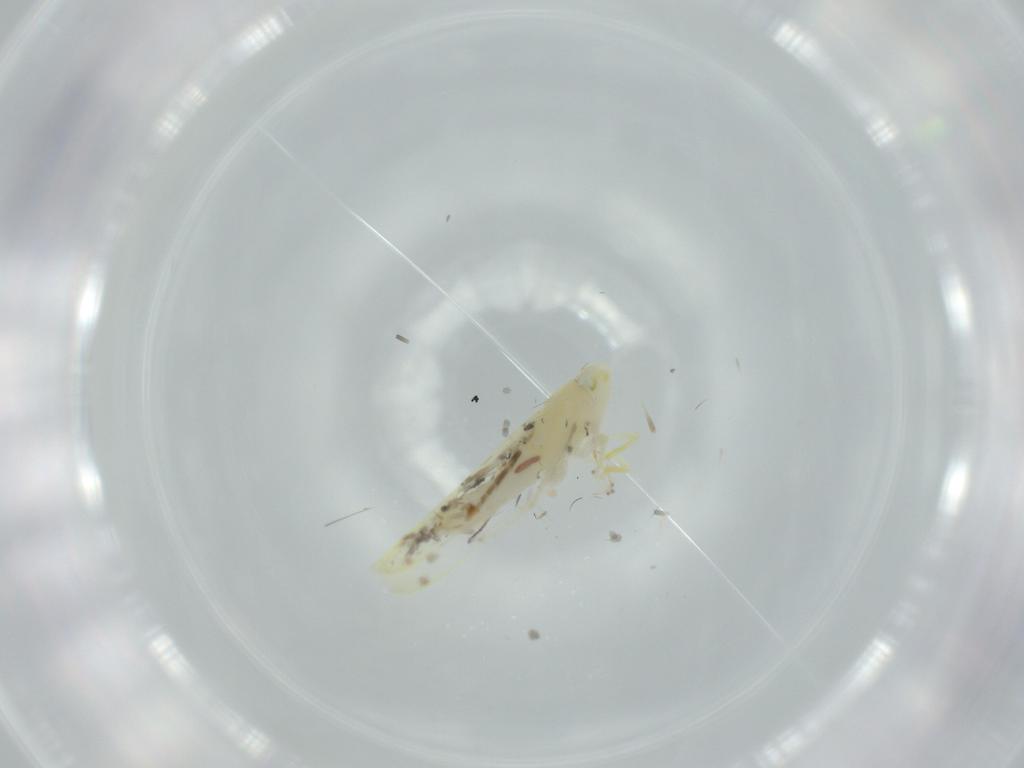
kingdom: Animalia
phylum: Arthropoda
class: Insecta
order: Hemiptera
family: Cicadellidae
